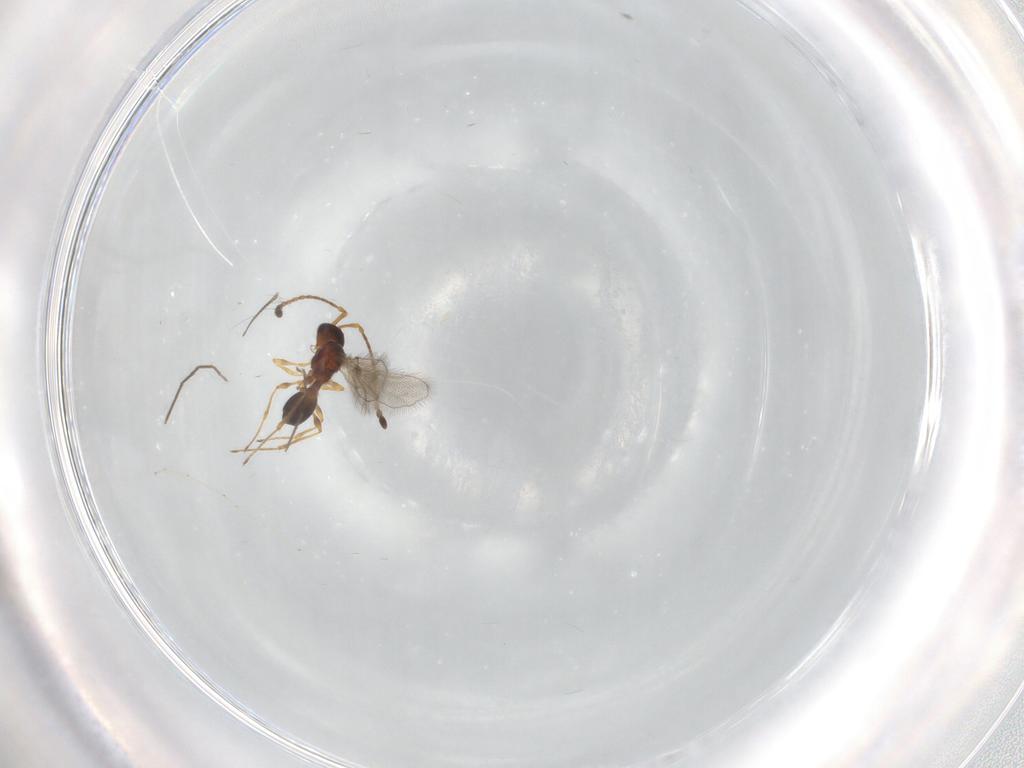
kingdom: Animalia
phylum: Arthropoda
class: Insecta
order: Hymenoptera
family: Diapriidae
